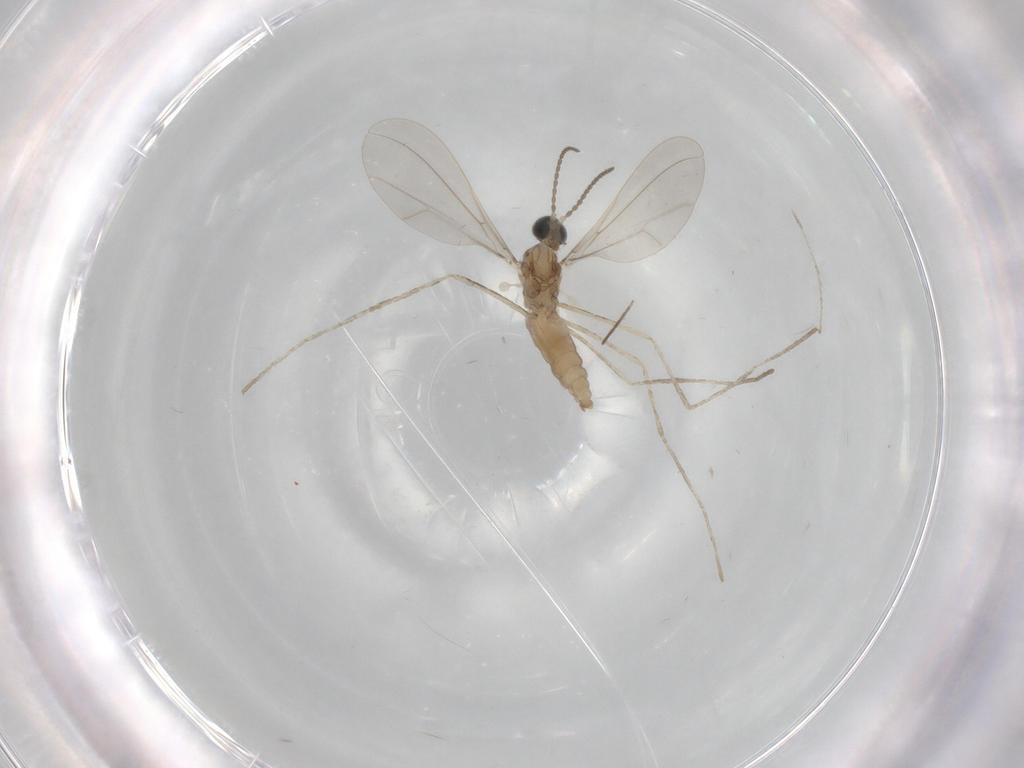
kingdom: Animalia
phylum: Arthropoda
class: Insecta
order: Diptera
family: Cecidomyiidae
